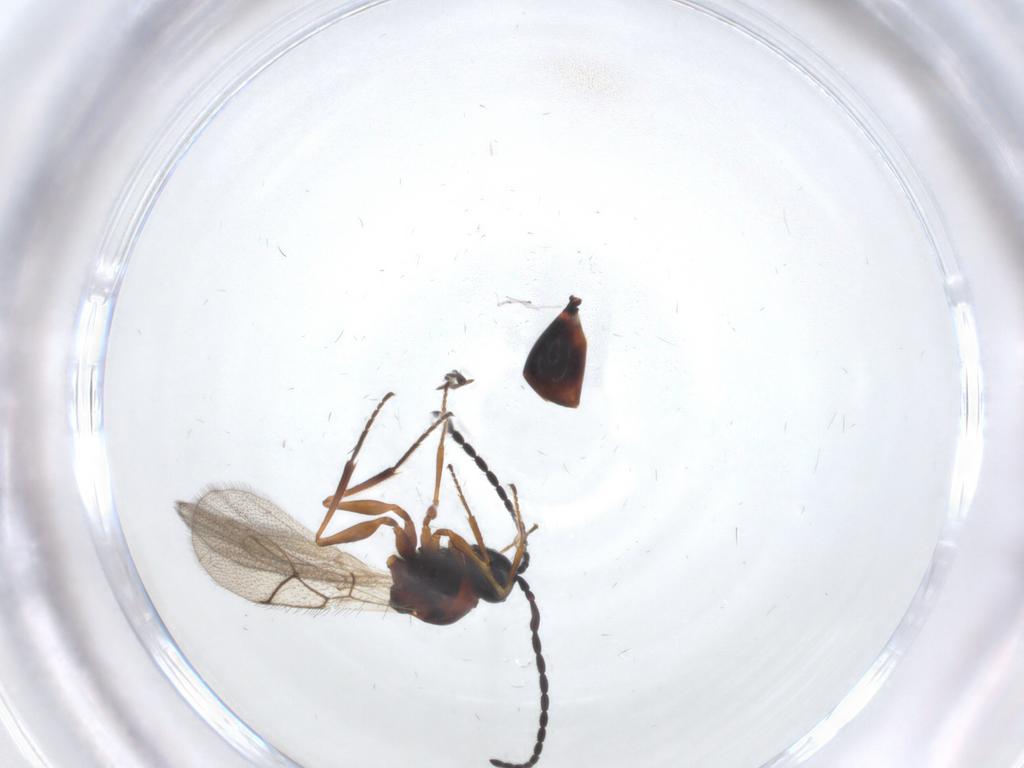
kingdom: Animalia
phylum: Arthropoda
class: Insecta
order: Hymenoptera
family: Figitidae
